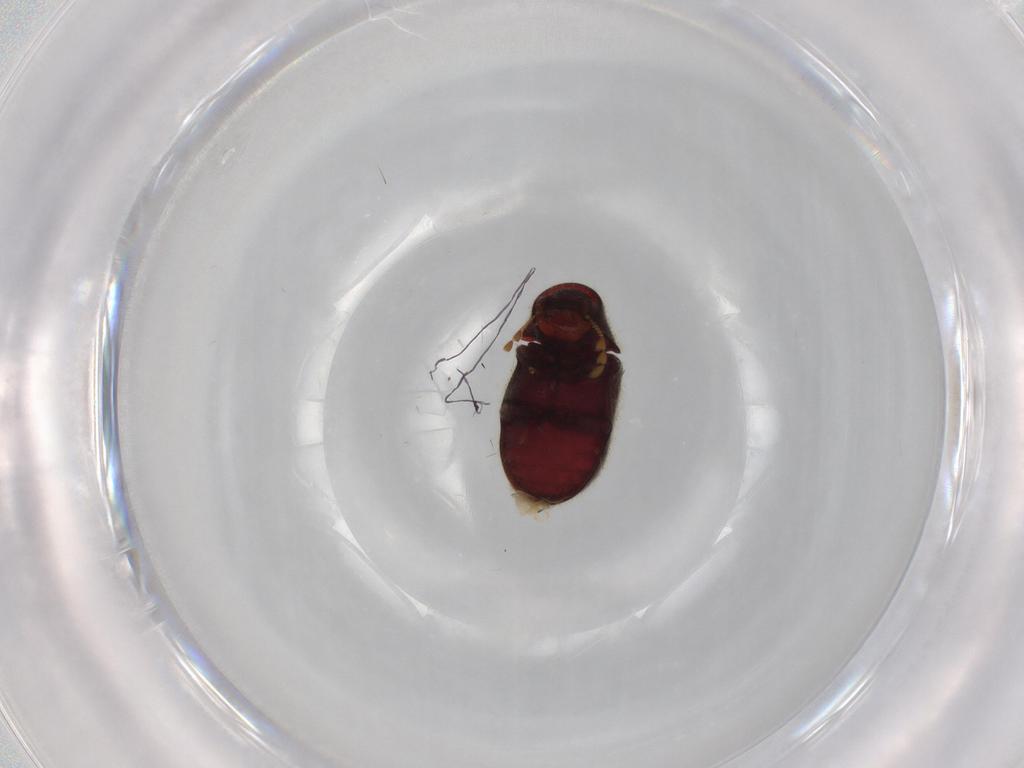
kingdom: Animalia
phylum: Arthropoda
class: Insecta
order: Coleoptera
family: Ptinidae
